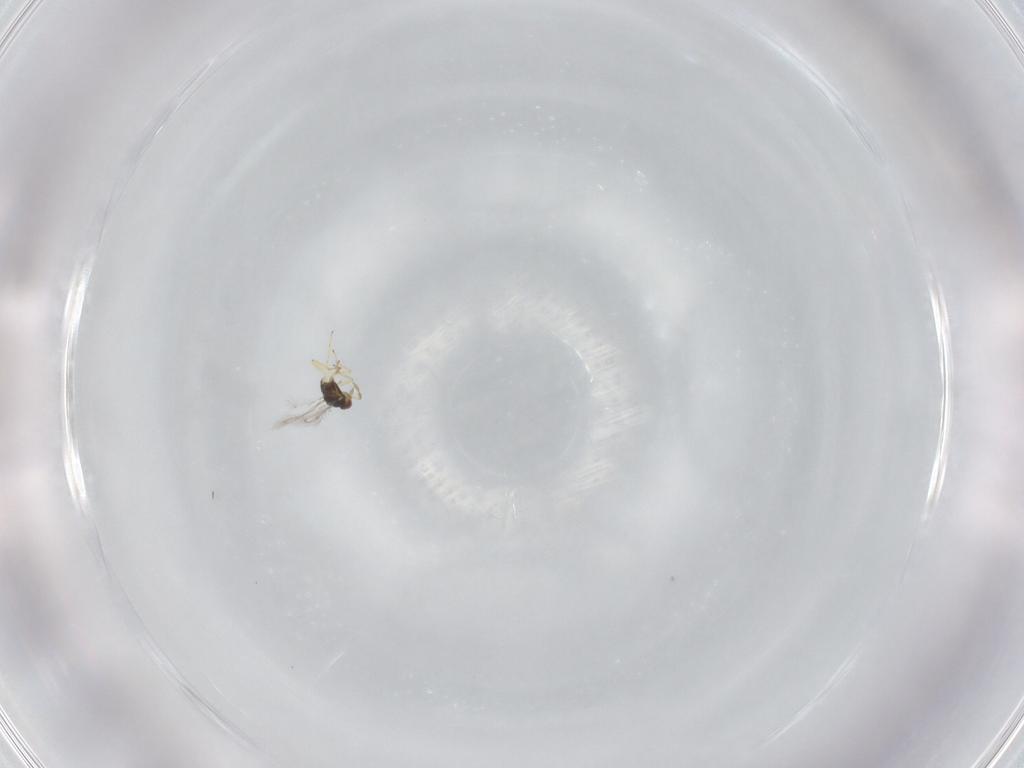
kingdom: Animalia
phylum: Arthropoda
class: Insecta
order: Hymenoptera
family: Eulophidae
